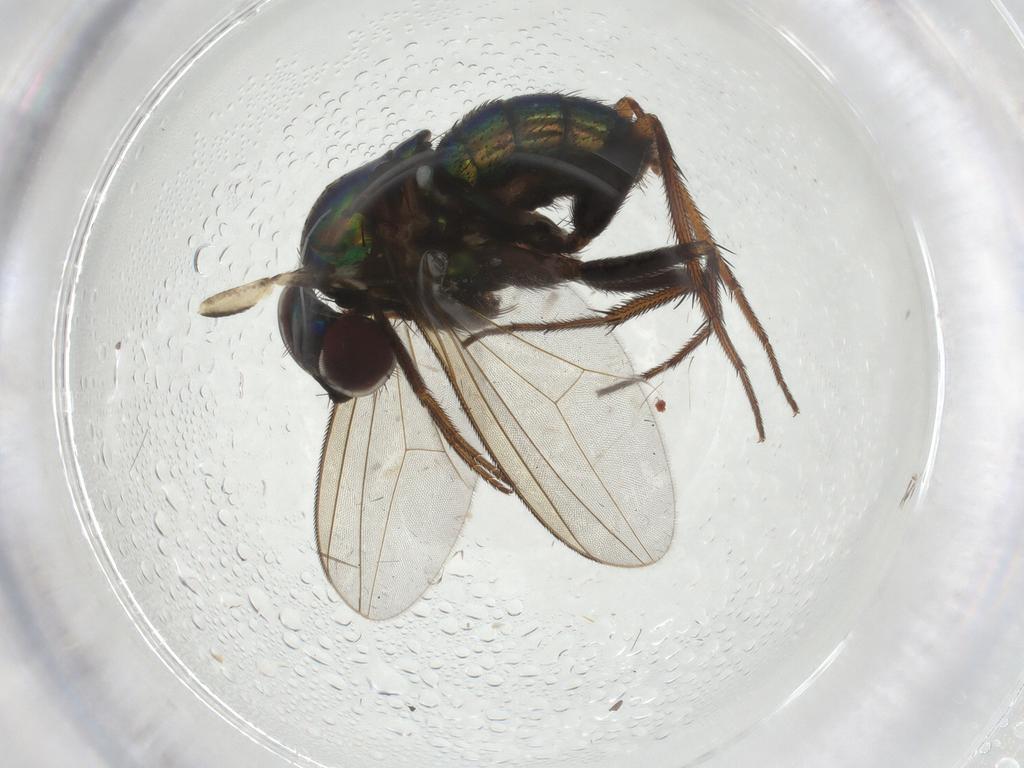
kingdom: Animalia
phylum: Arthropoda
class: Insecta
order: Diptera
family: Dolichopodidae
